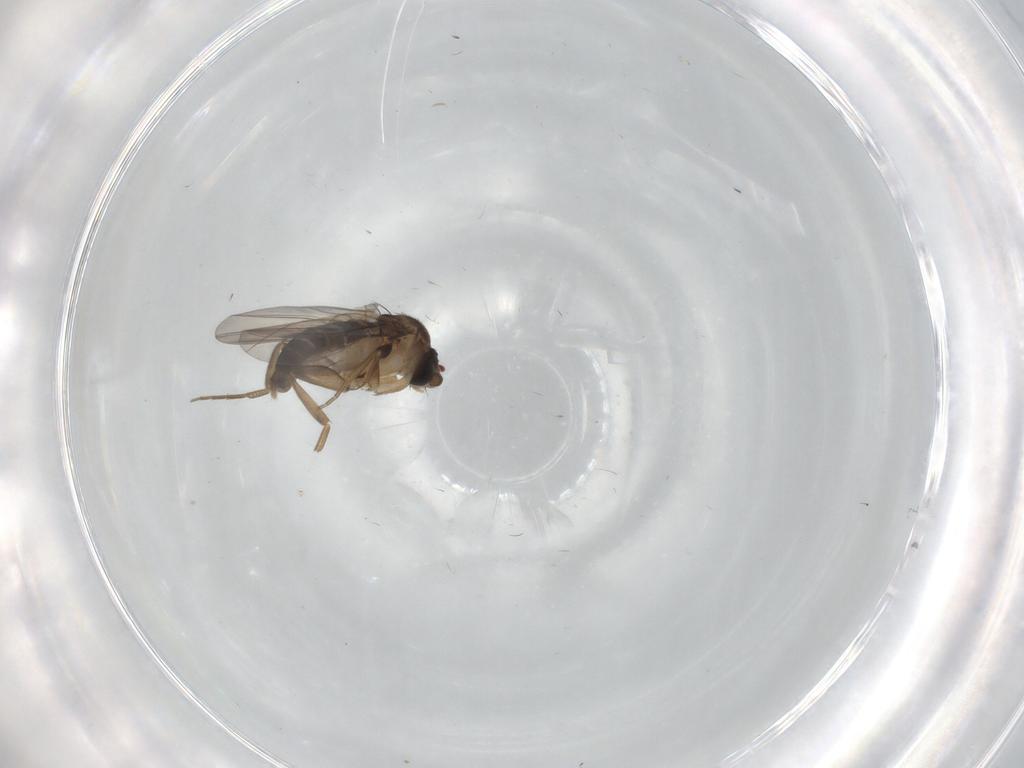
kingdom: Animalia
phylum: Arthropoda
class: Insecta
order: Diptera
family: Phoridae
